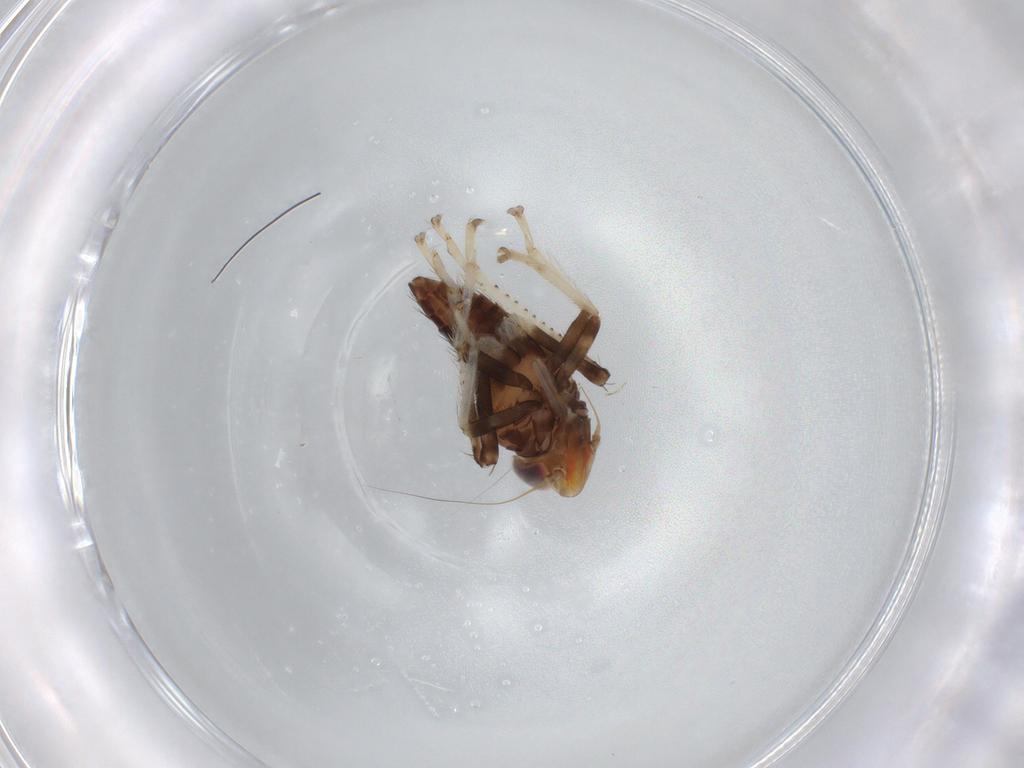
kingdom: Animalia
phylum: Arthropoda
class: Insecta
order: Hemiptera
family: Cicadellidae
